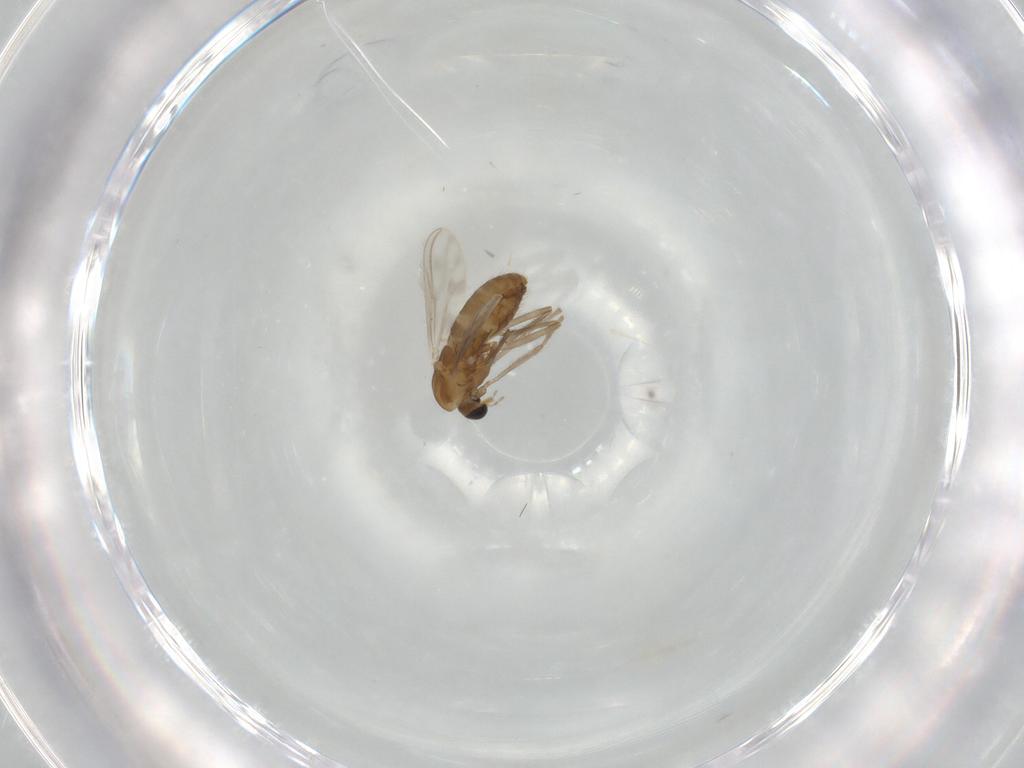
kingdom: Animalia
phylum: Arthropoda
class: Insecta
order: Diptera
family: Chironomidae
